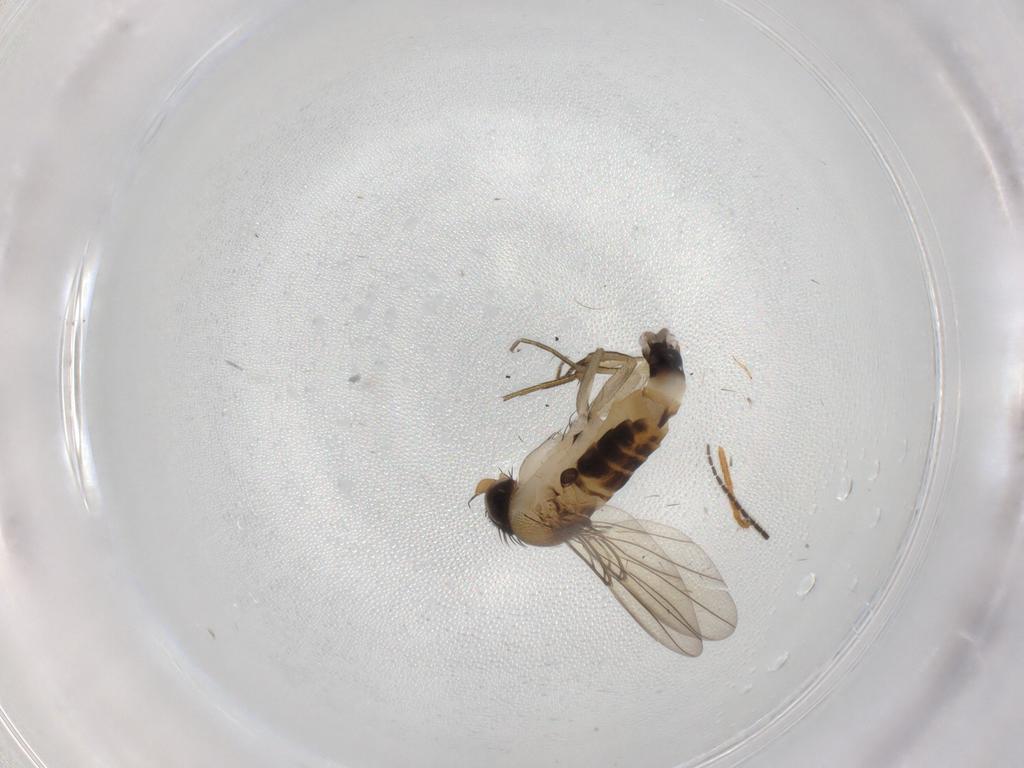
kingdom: Animalia
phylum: Arthropoda
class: Insecta
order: Diptera
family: Phoridae
